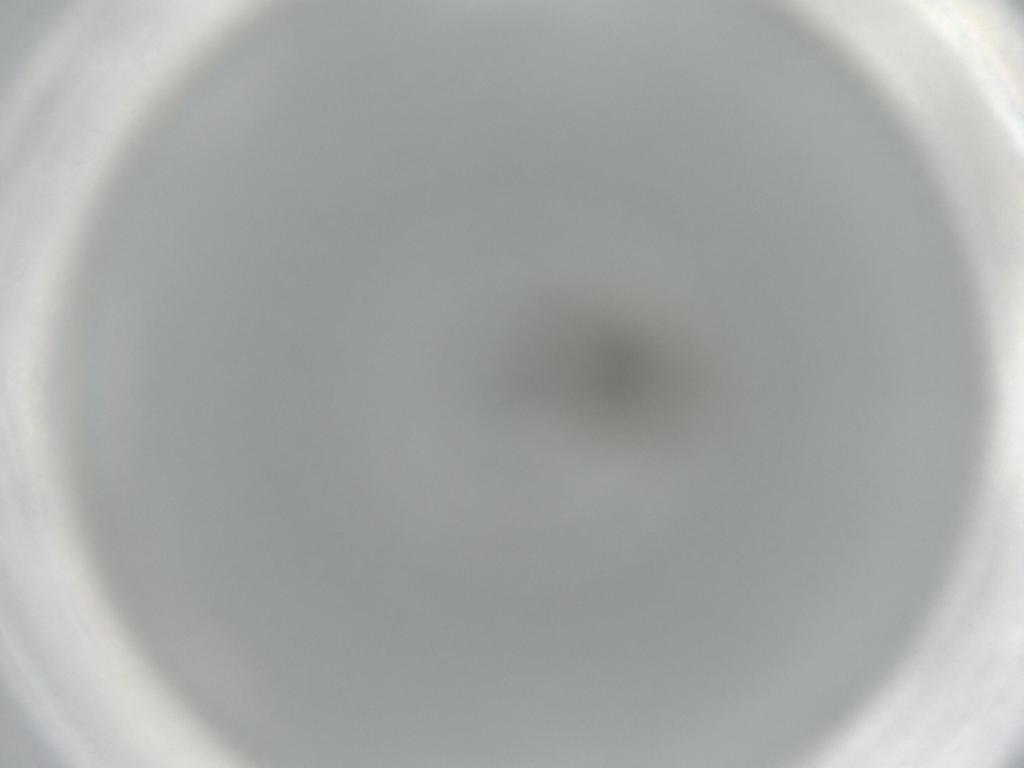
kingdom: Animalia
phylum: Arthropoda
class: Insecta
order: Diptera
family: Phoridae
